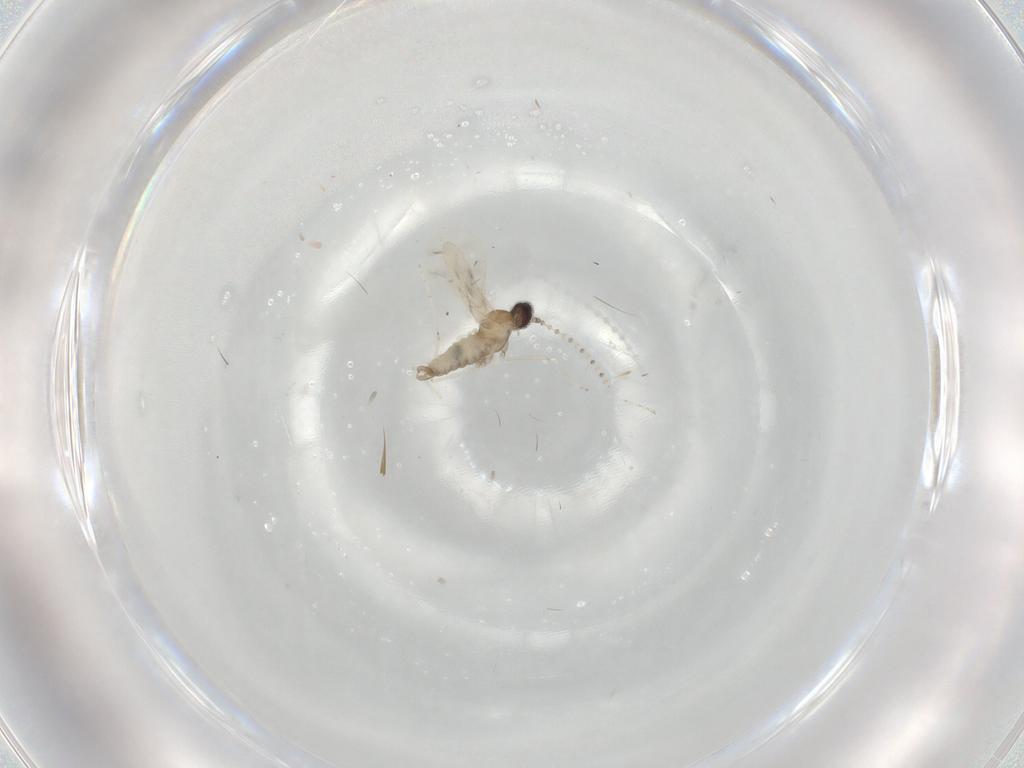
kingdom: Animalia
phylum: Arthropoda
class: Insecta
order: Diptera
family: Cecidomyiidae
